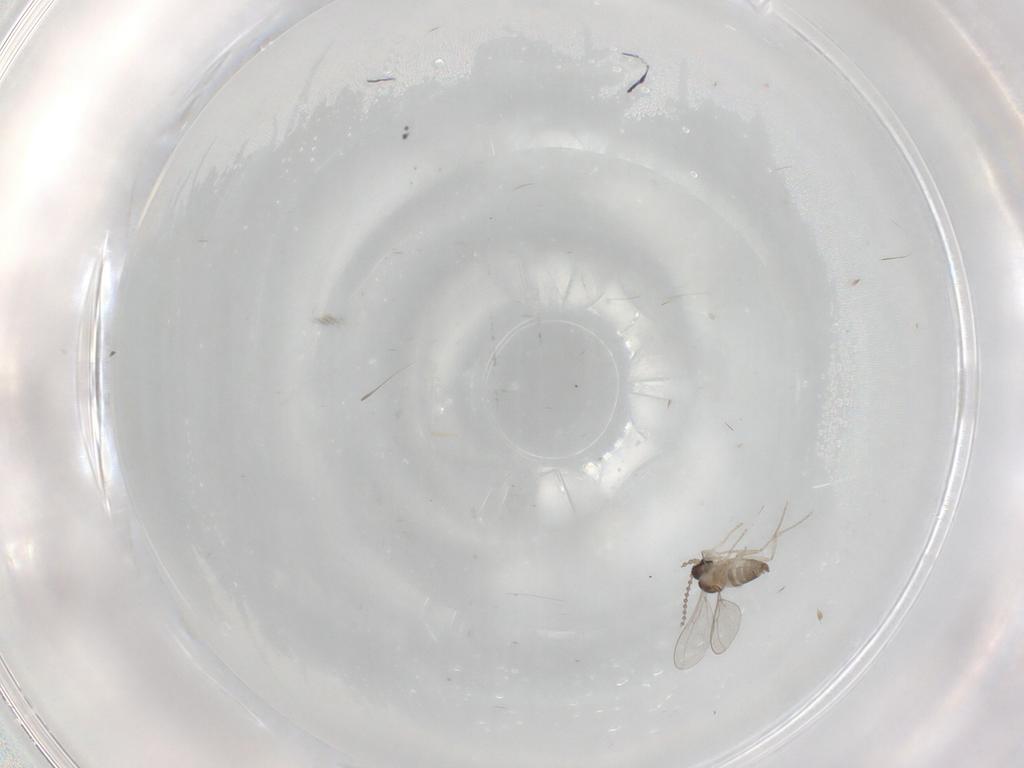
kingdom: Animalia
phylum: Arthropoda
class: Insecta
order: Diptera
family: Cecidomyiidae
